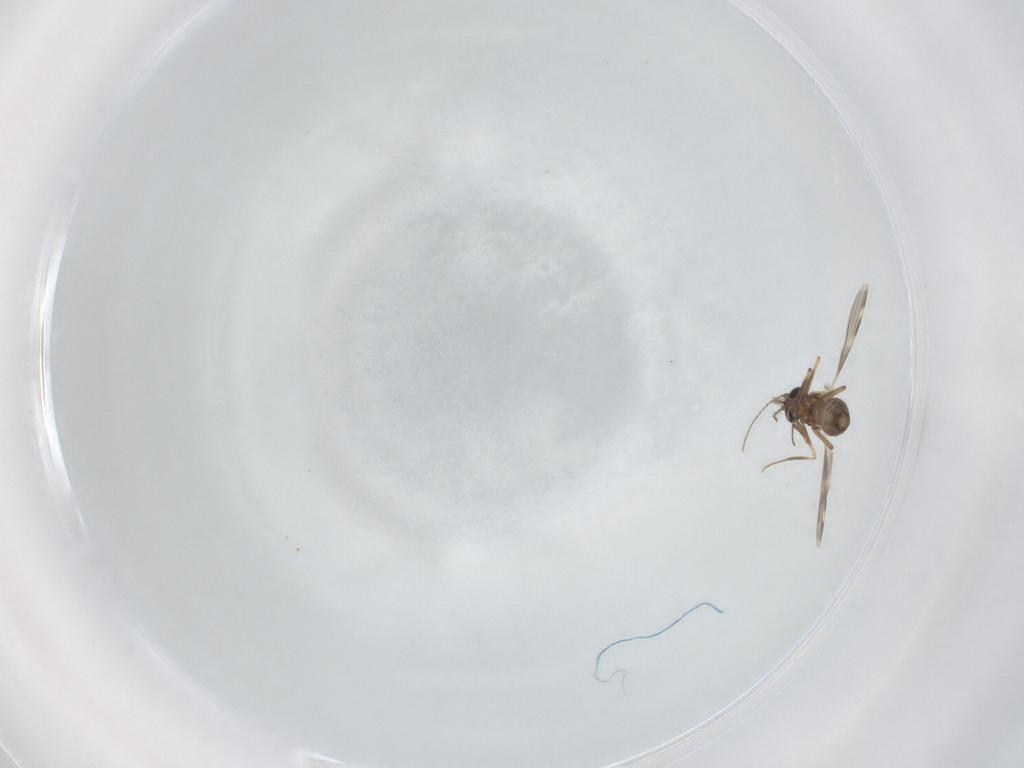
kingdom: Animalia
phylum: Arthropoda
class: Insecta
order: Diptera
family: Ceratopogonidae
